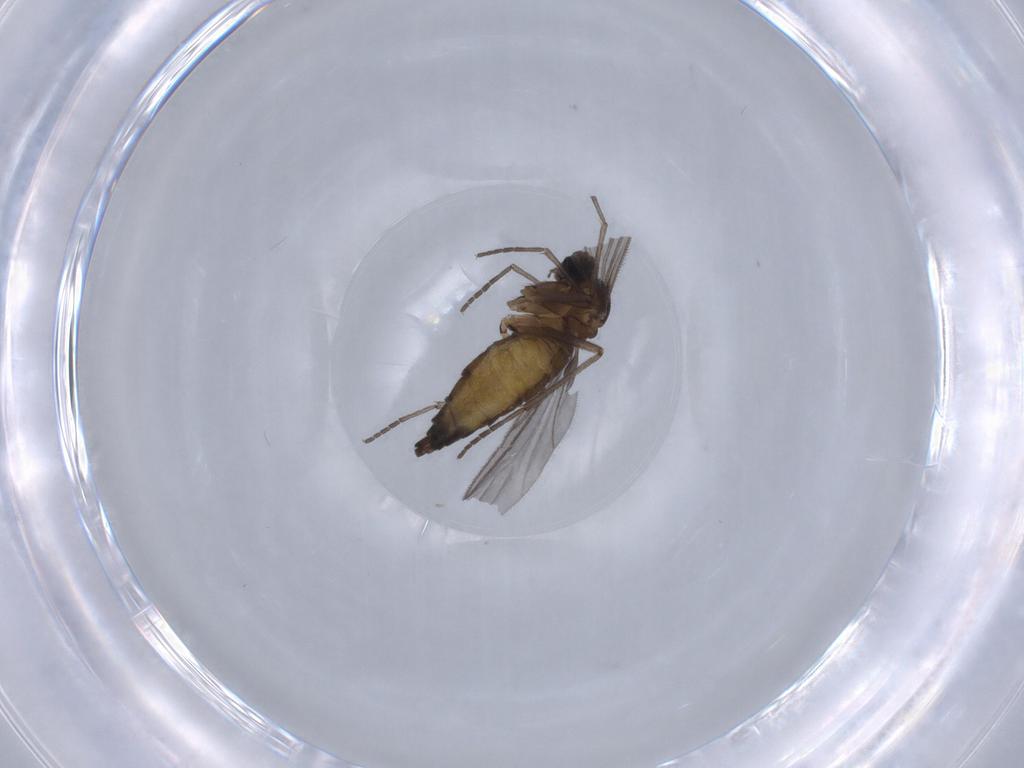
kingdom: Animalia
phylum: Arthropoda
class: Insecta
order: Diptera
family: Sciaridae
